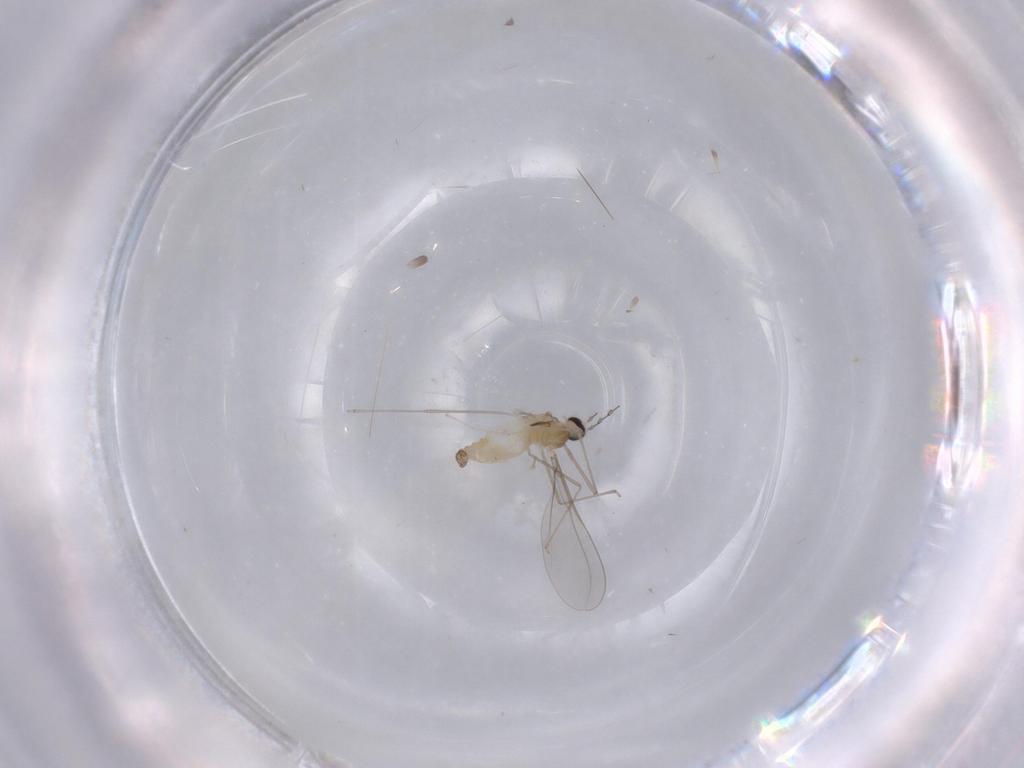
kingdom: Animalia
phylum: Arthropoda
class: Insecta
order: Diptera
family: Cecidomyiidae
